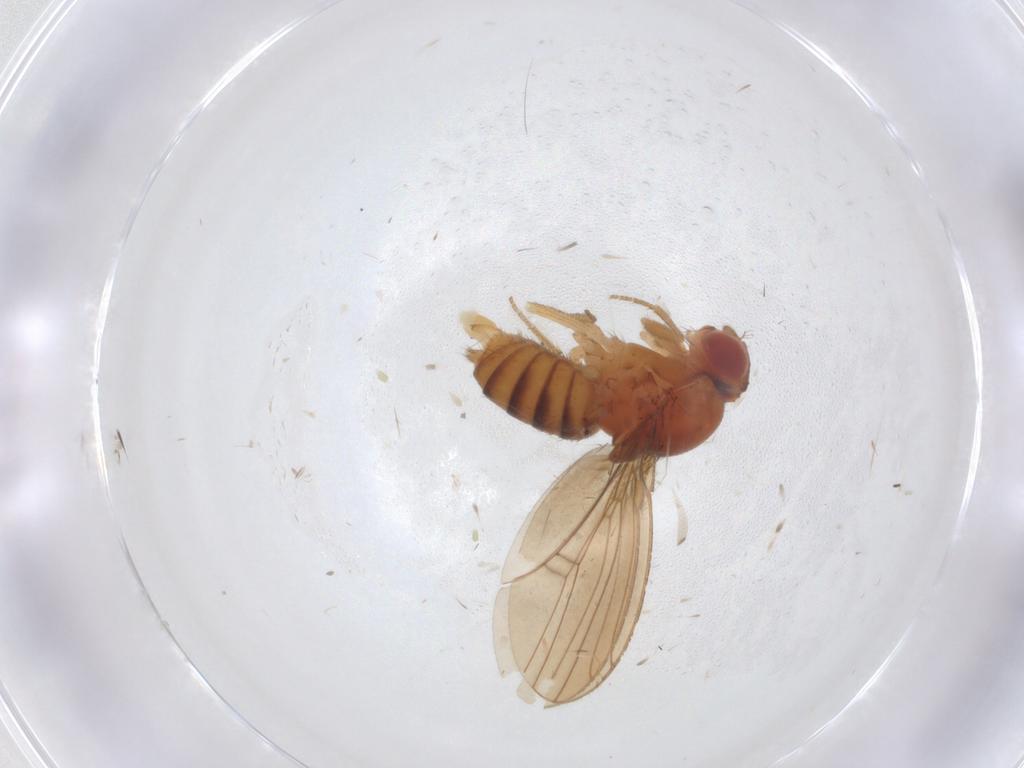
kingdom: Animalia
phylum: Arthropoda
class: Insecta
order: Diptera
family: Drosophilidae
